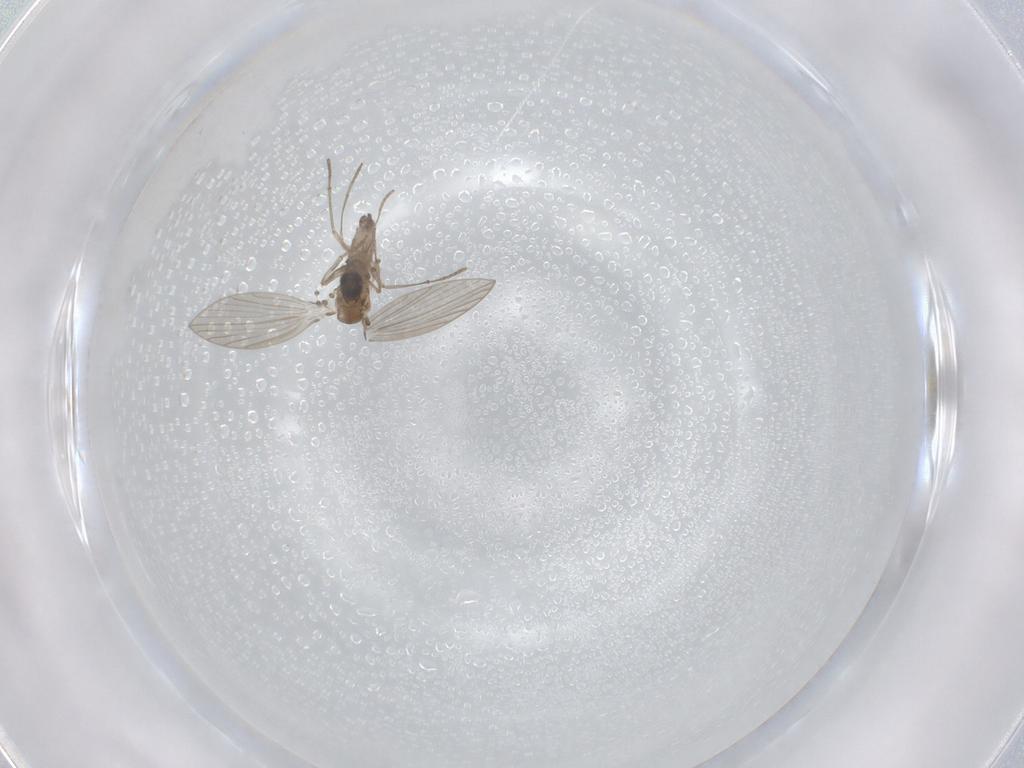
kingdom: Animalia
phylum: Arthropoda
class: Insecta
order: Diptera
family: Psychodidae
